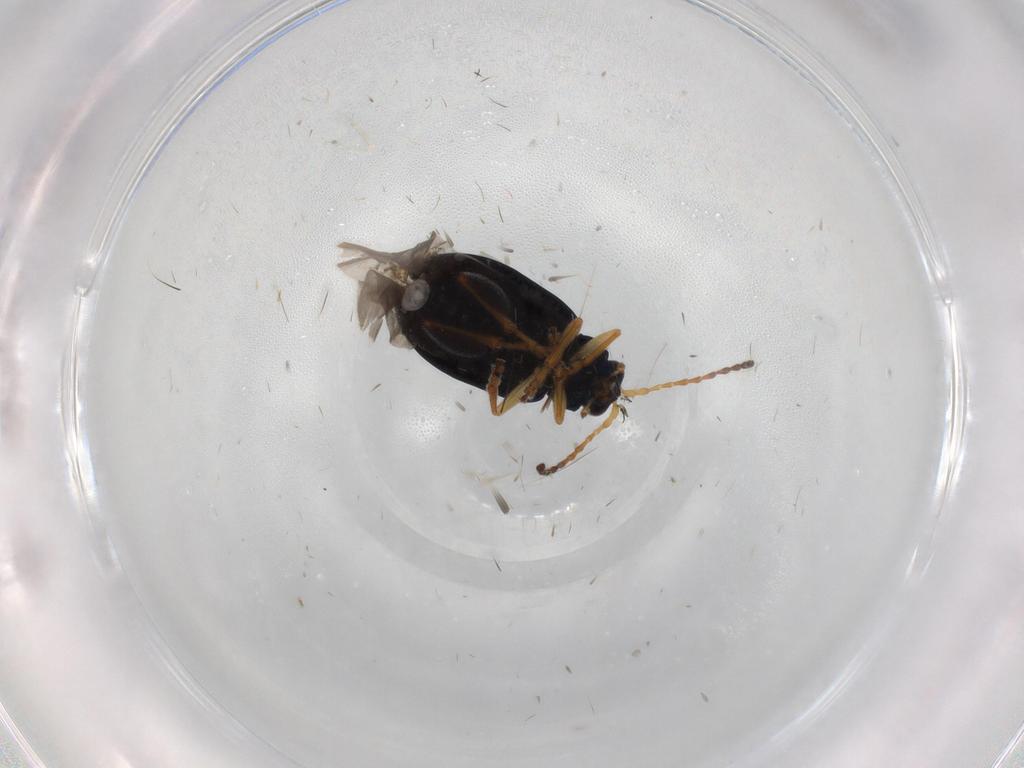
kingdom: Animalia
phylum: Arthropoda
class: Insecta
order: Coleoptera
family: Chrysomelidae
